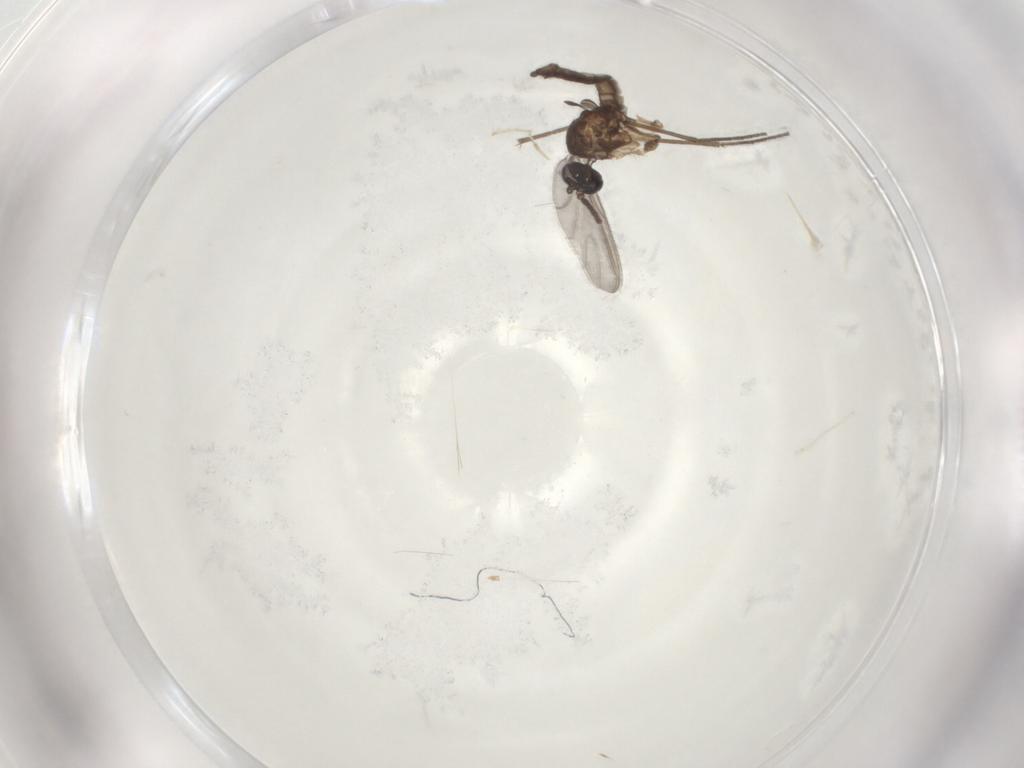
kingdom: Animalia
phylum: Arthropoda
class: Insecta
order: Diptera
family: Hybotidae
